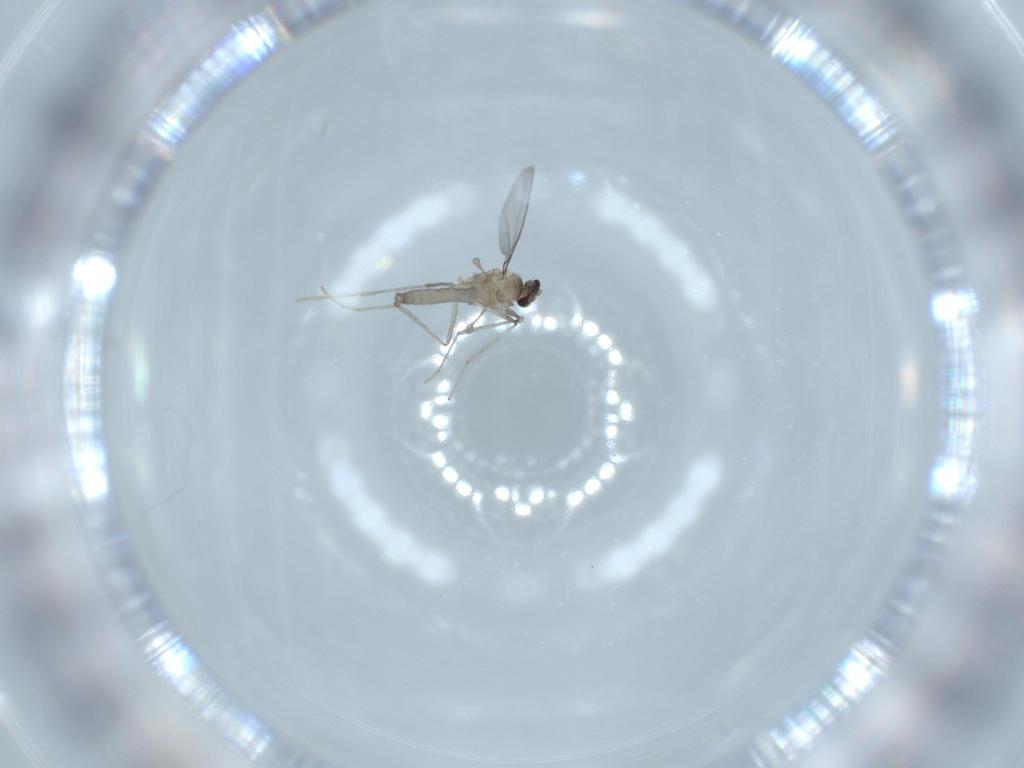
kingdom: Animalia
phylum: Arthropoda
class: Insecta
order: Diptera
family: Cecidomyiidae
